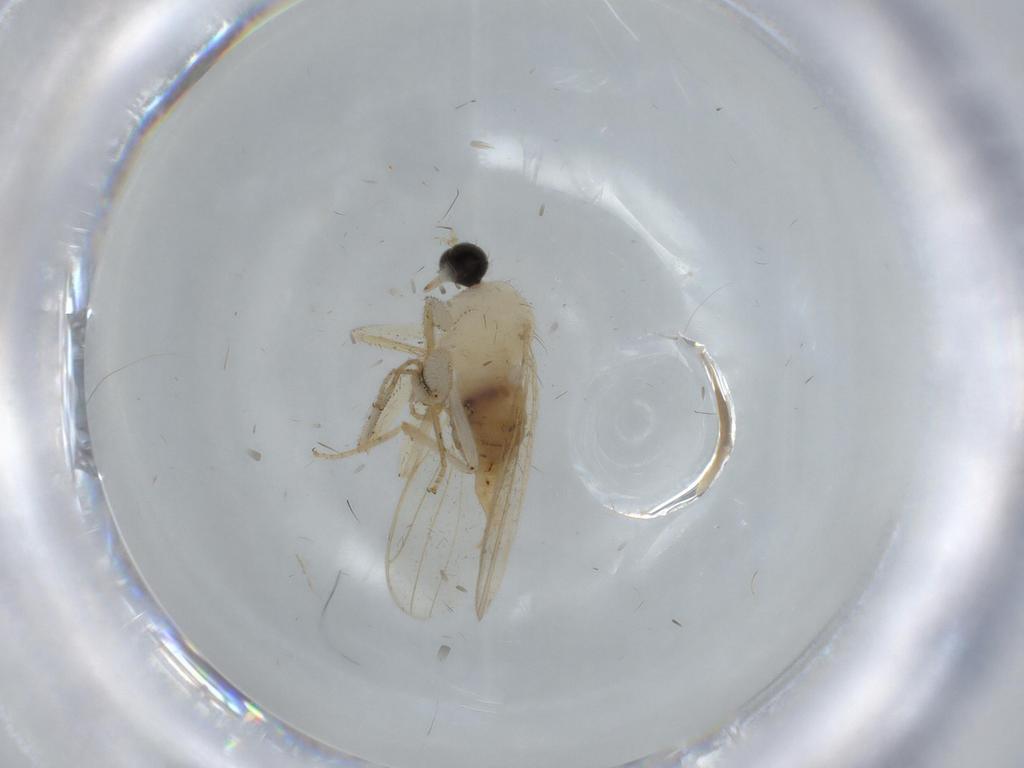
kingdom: Animalia
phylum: Arthropoda
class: Insecta
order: Diptera
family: Hybotidae
